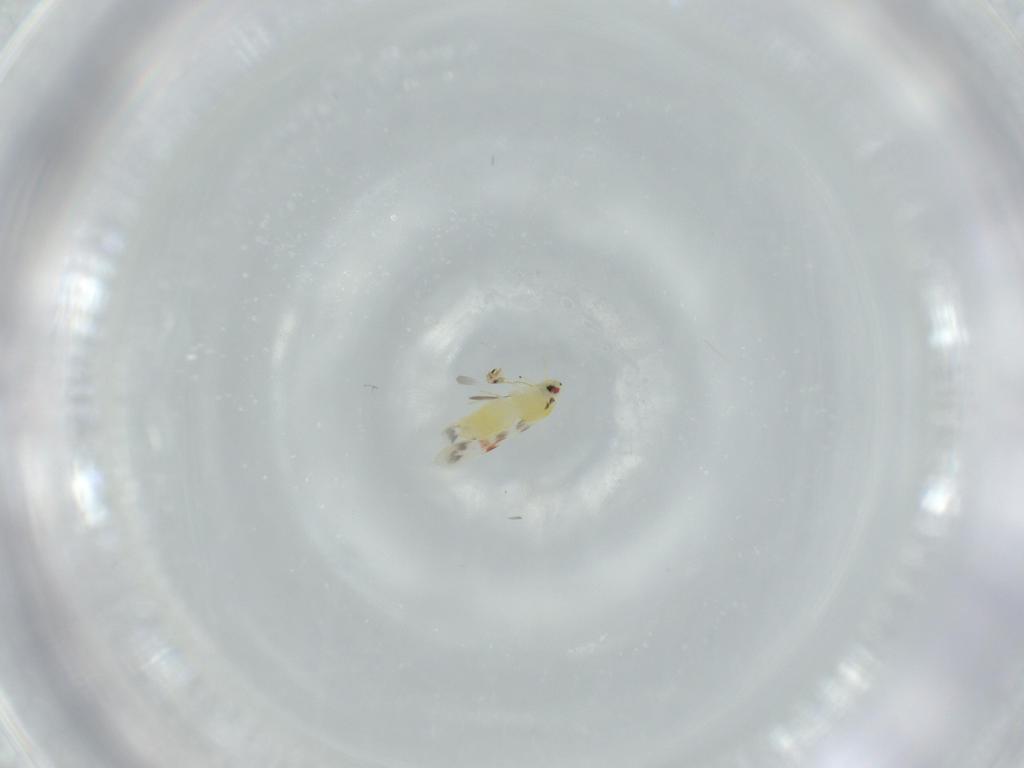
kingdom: Animalia
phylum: Arthropoda
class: Insecta
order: Hemiptera
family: Aleyrodidae
